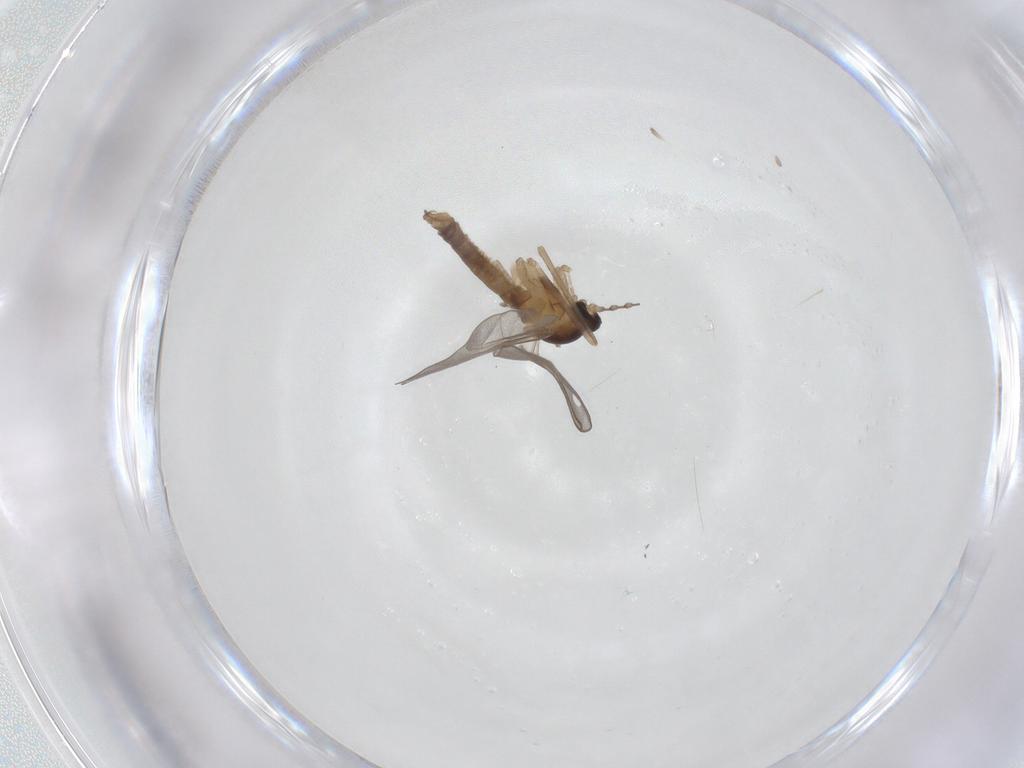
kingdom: Animalia
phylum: Arthropoda
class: Insecta
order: Diptera
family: Cecidomyiidae
